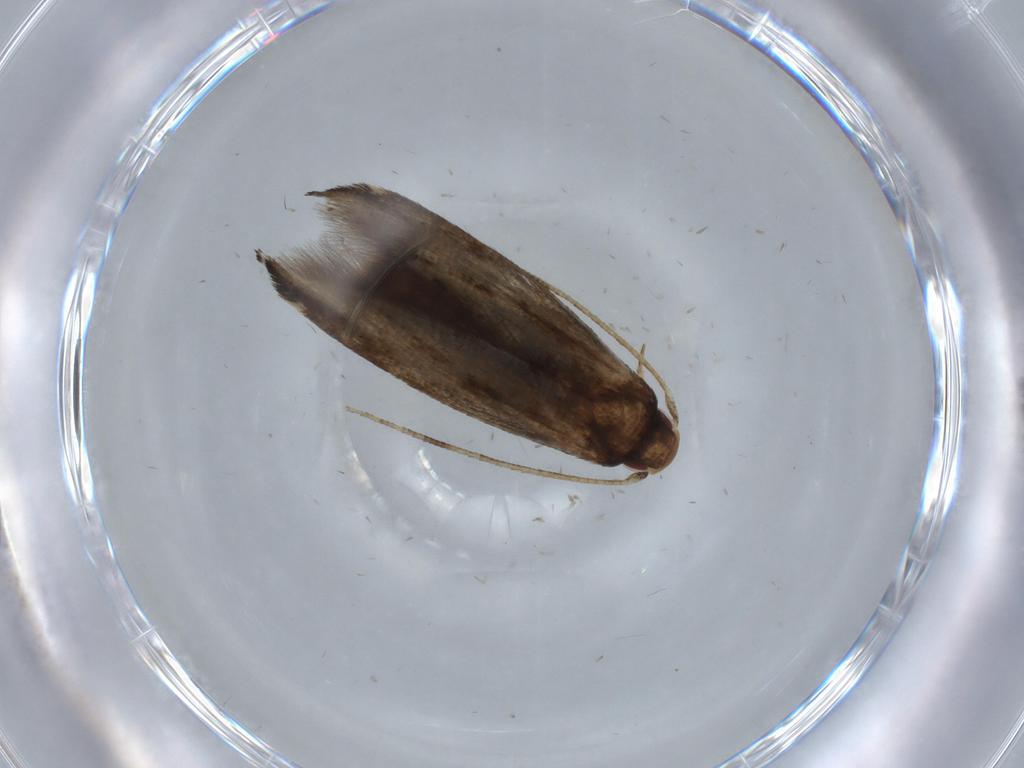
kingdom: Animalia
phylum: Arthropoda
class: Insecta
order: Lepidoptera
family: Momphidae
